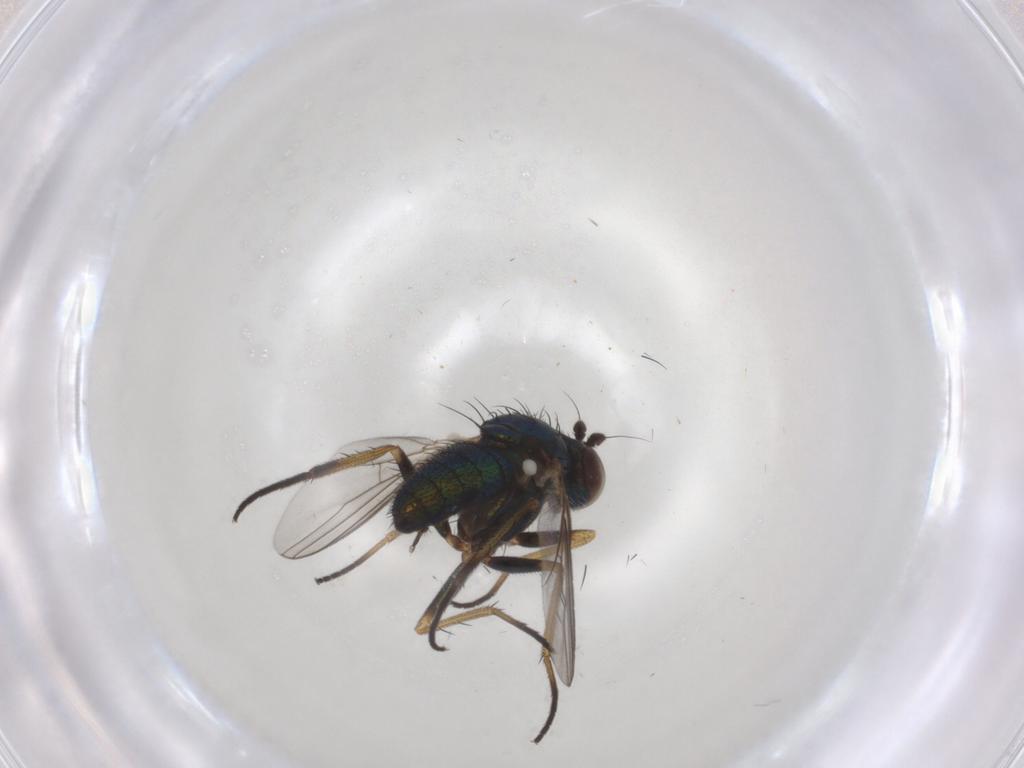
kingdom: Animalia
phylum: Arthropoda
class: Insecta
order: Diptera
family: Dolichopodidae
